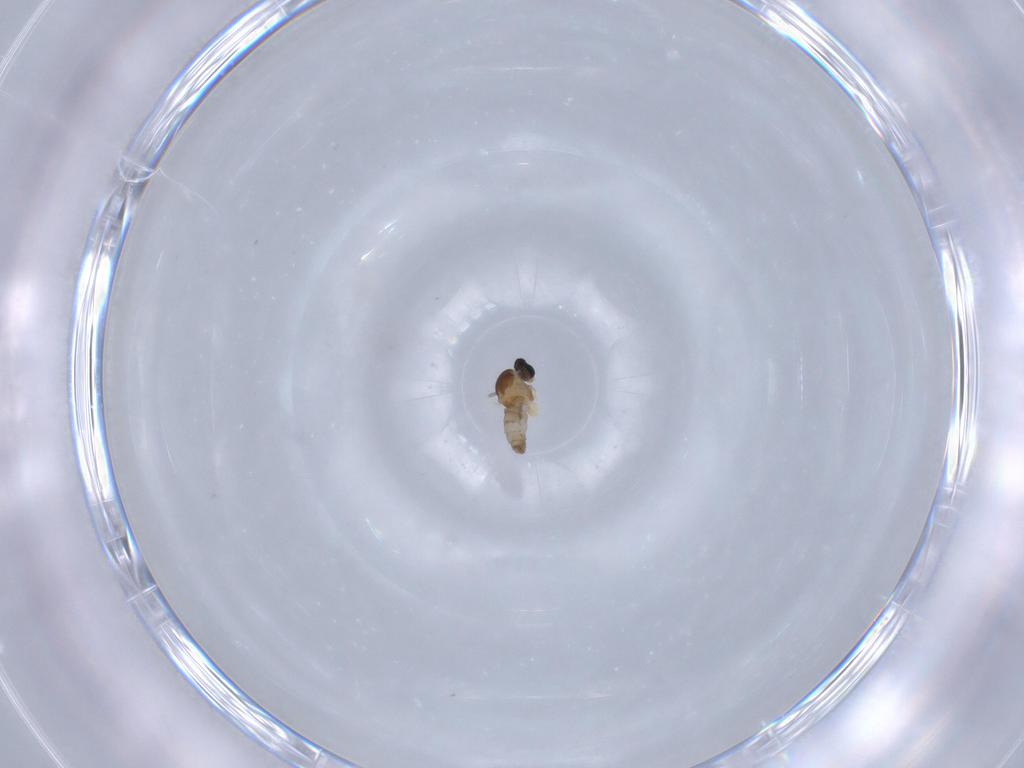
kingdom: Animalia
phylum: Arthropoda
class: Insecta
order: Diptera
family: Cecidomyiidae
